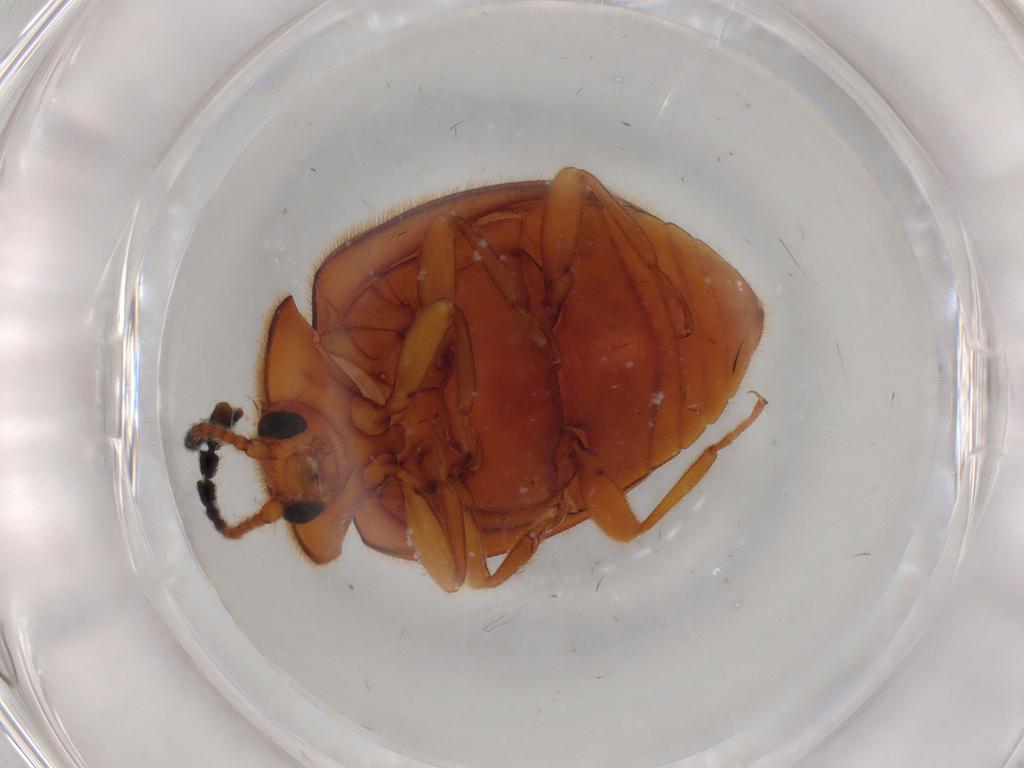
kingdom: Animalia
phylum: Arthropoda
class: Insecta
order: Coleoptera
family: Endomychidae
